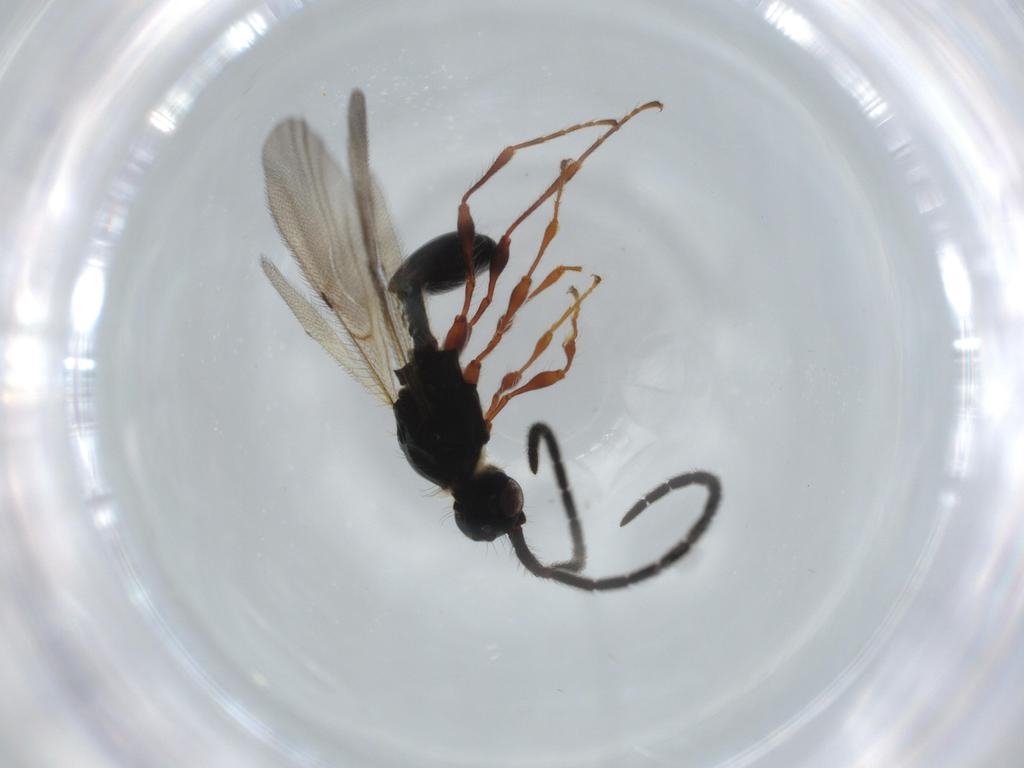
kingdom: Animalia
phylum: Arthropoda
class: Insecta
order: Hymenoptera
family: Diapriidae
